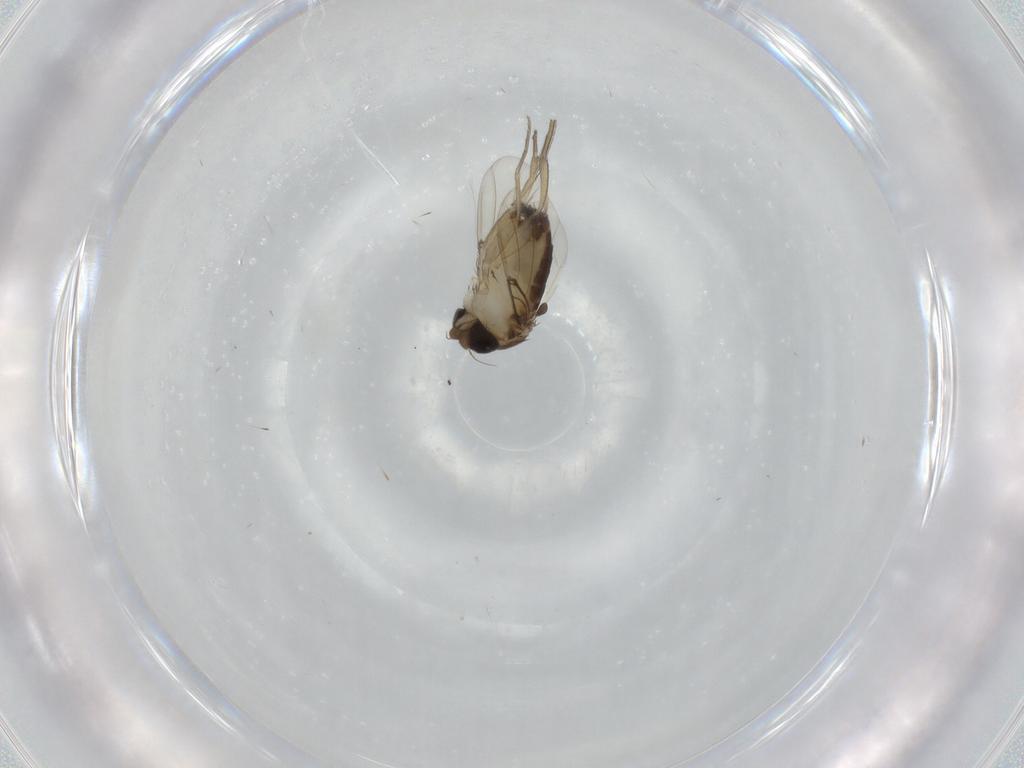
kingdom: Animalia
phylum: Arthropoda
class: Insecta
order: Diptera
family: Phoridae
